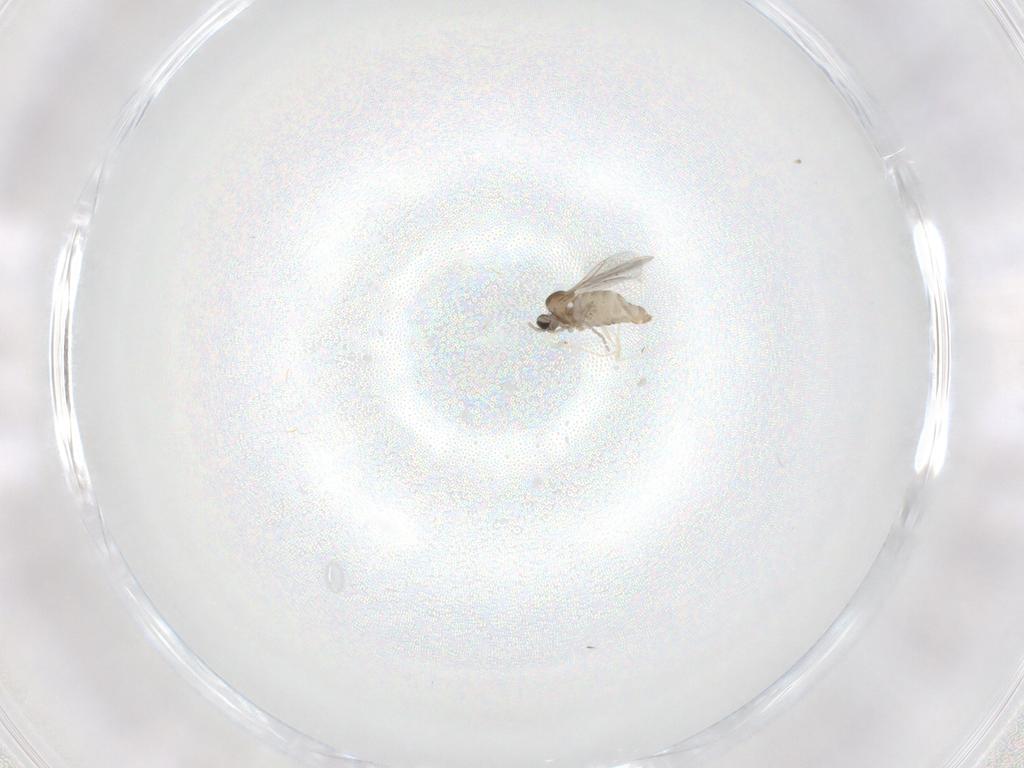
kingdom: Animalia
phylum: Arthropoda
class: Insecta
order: Diptera
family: Cecidomyiidae
